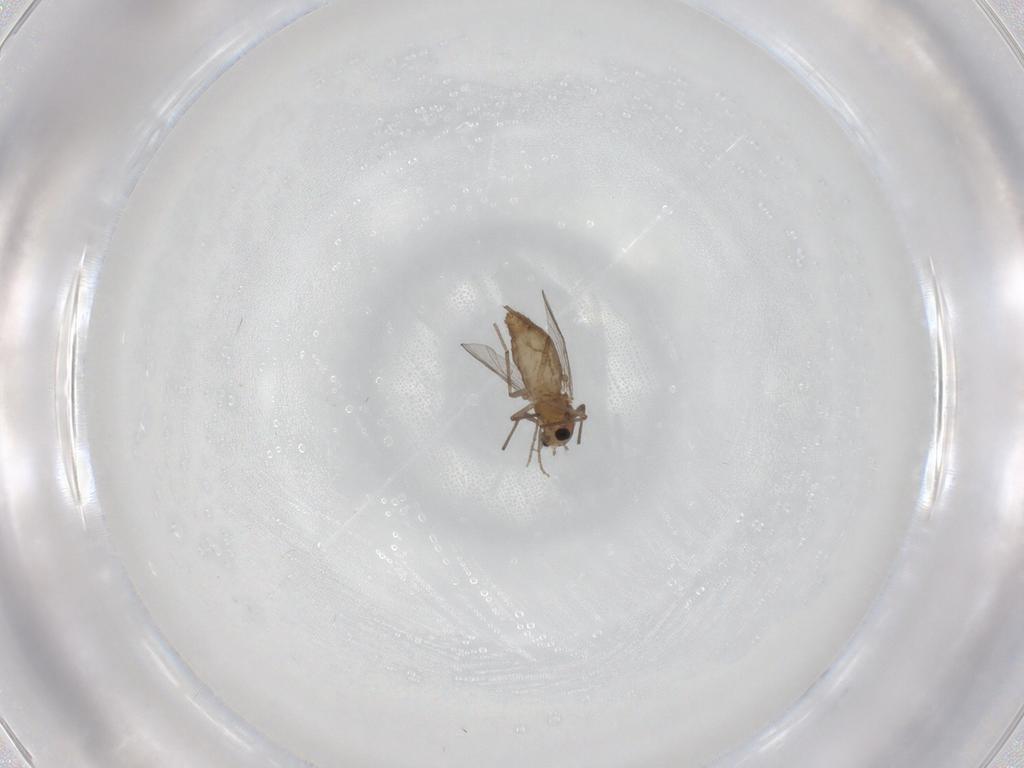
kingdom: Animalia
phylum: Arthropoda
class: Insecta
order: Diptera
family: Chironomidae
